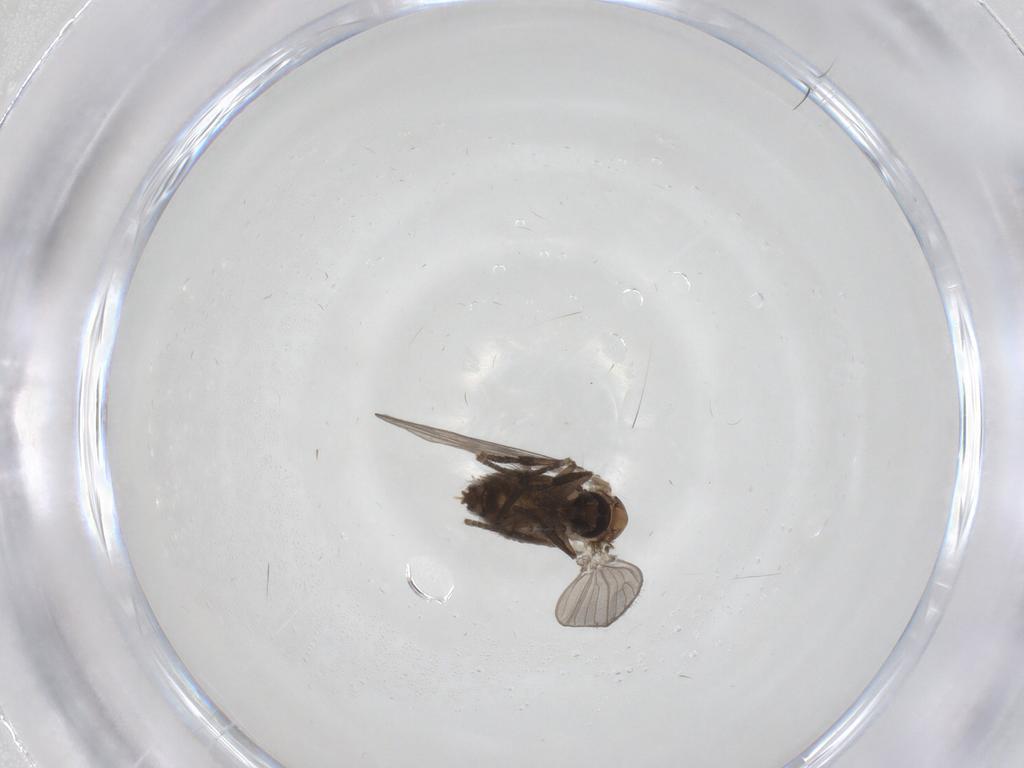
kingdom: Animalia
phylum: Arthropoda
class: Insecta
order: Diptera
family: Psychodidae
